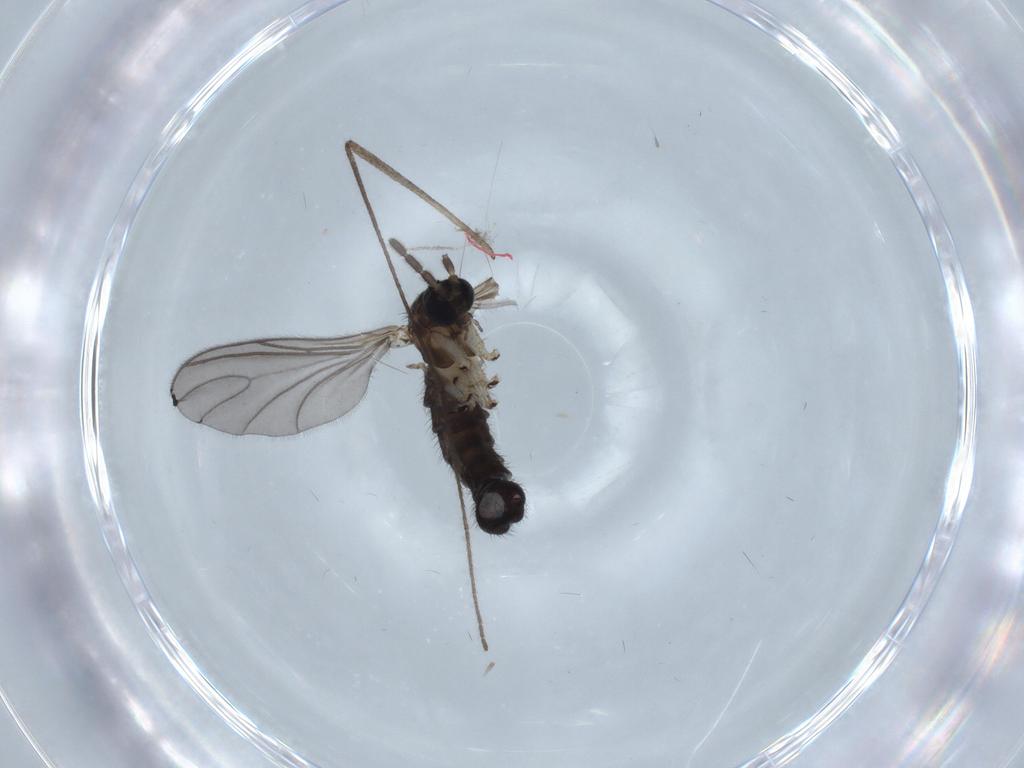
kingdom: Animalia
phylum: Arthropoda
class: Insecta
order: Diptera
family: Sciaridae
